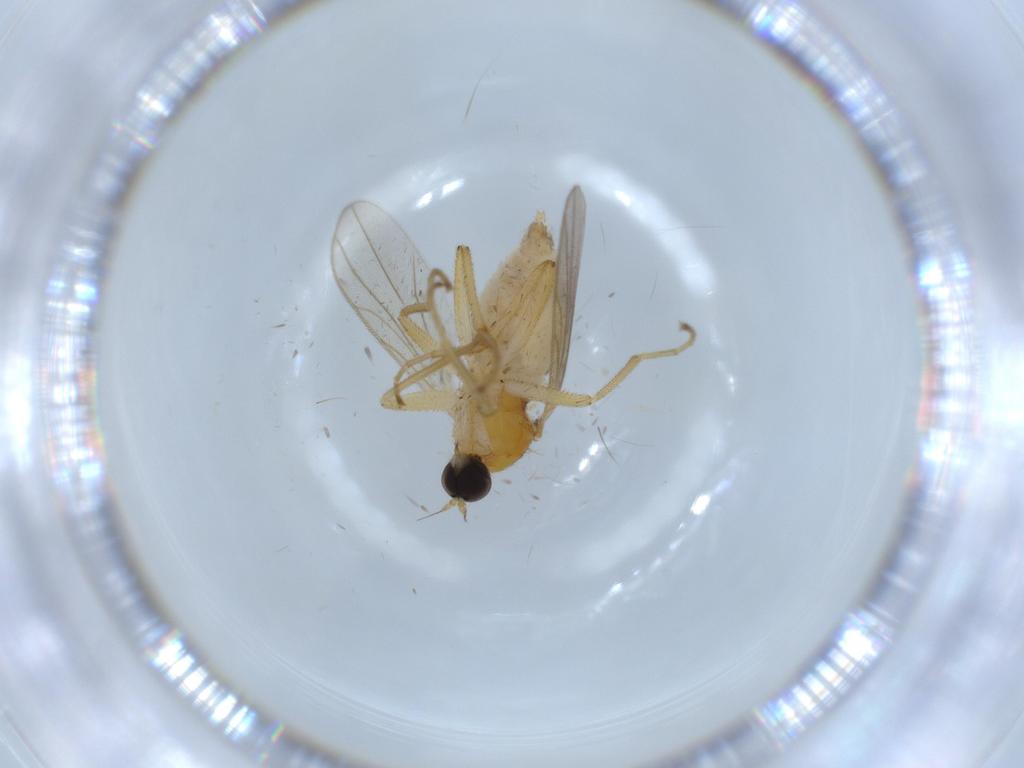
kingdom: Animalia
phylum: Arthropoda
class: Insecta
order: Diptera
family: Hybotidae
